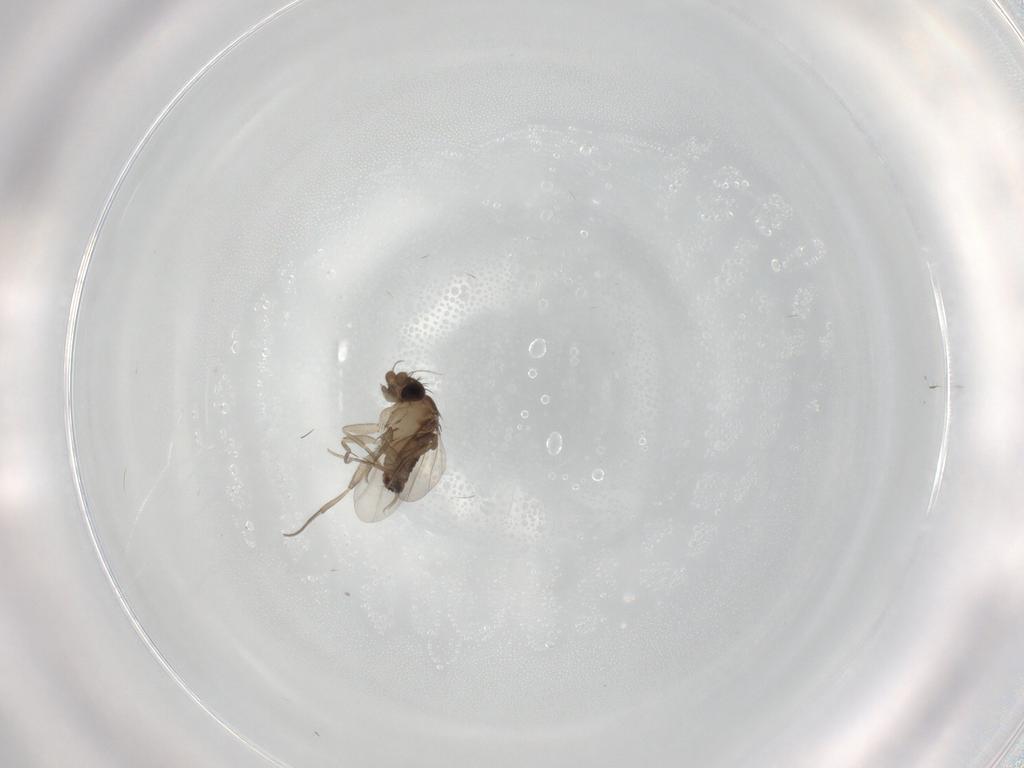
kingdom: Animalia
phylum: Arthropoda
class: Insecta
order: Diptera
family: Phoridae
